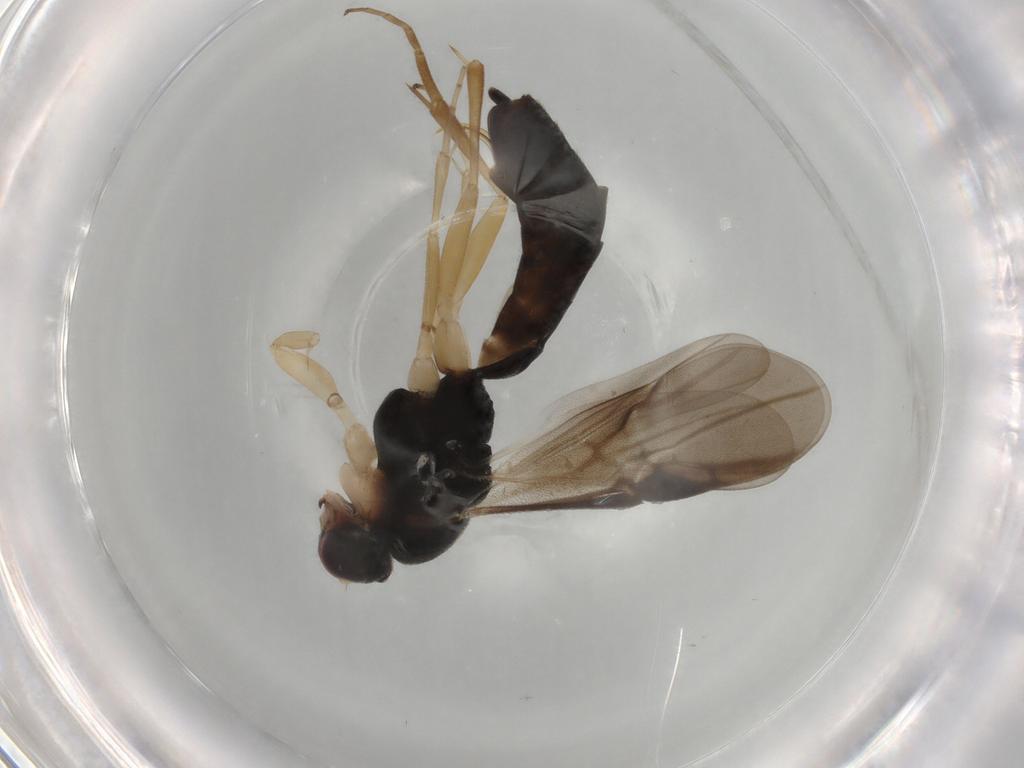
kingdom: Animalia
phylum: Arthropoda
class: Insecta
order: Hymenoptera
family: Braconidae
